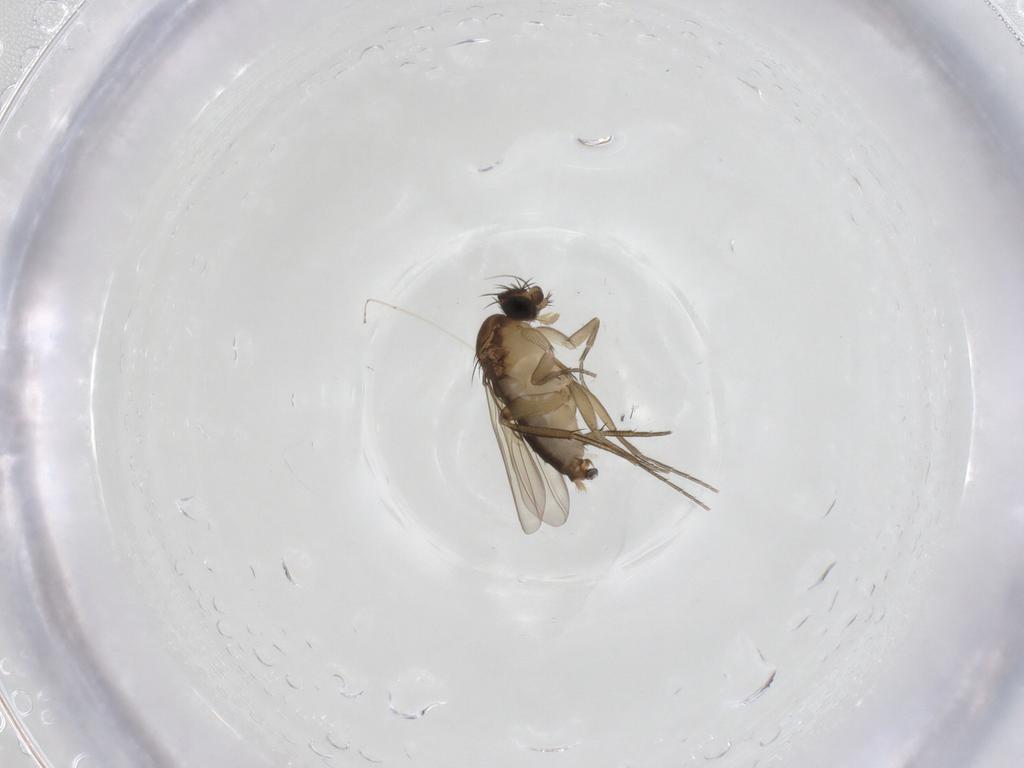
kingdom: Animalia
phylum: Arthropoda
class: Insecta
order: Diptera
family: Cecidomyiidae
